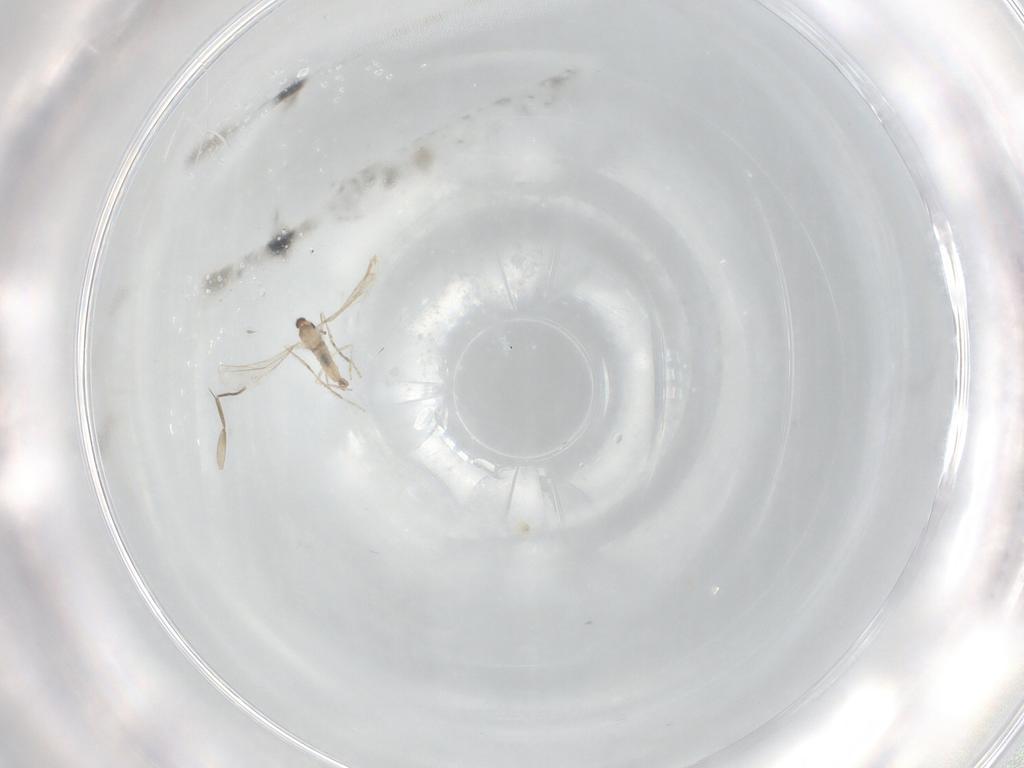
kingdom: Animalia
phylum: Arthropoda
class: Insecta
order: Diptera
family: Cecidomyiidae
